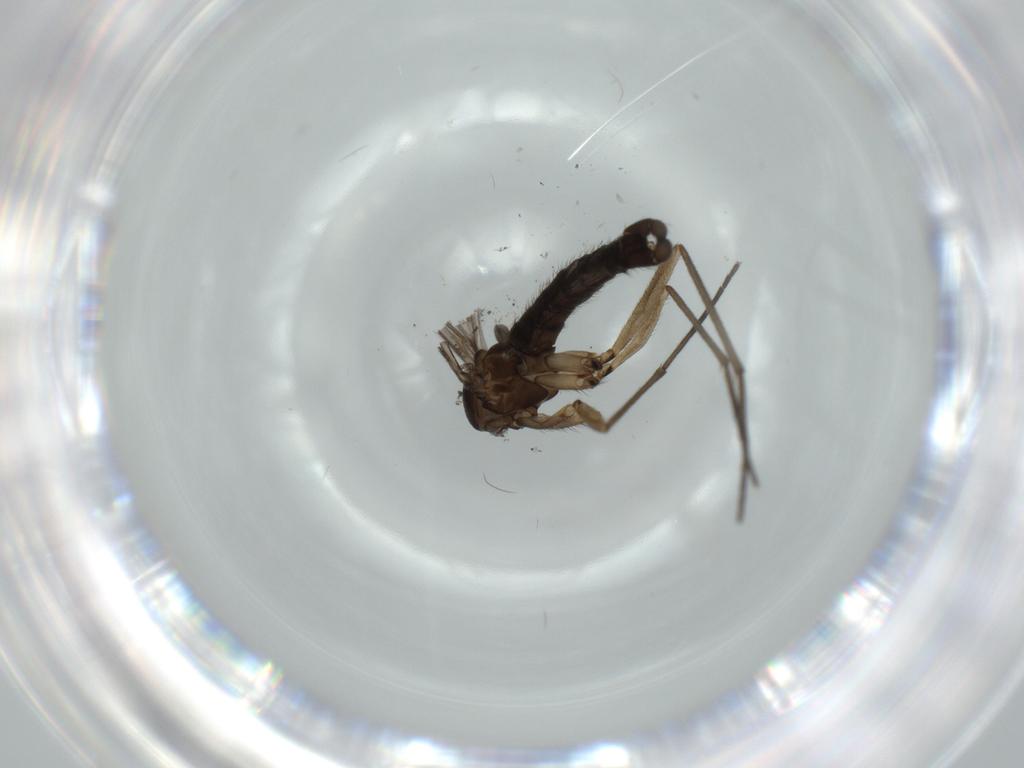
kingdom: Animalia
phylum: Arthropoda
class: Insecta
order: Diptera
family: Sciaridae
